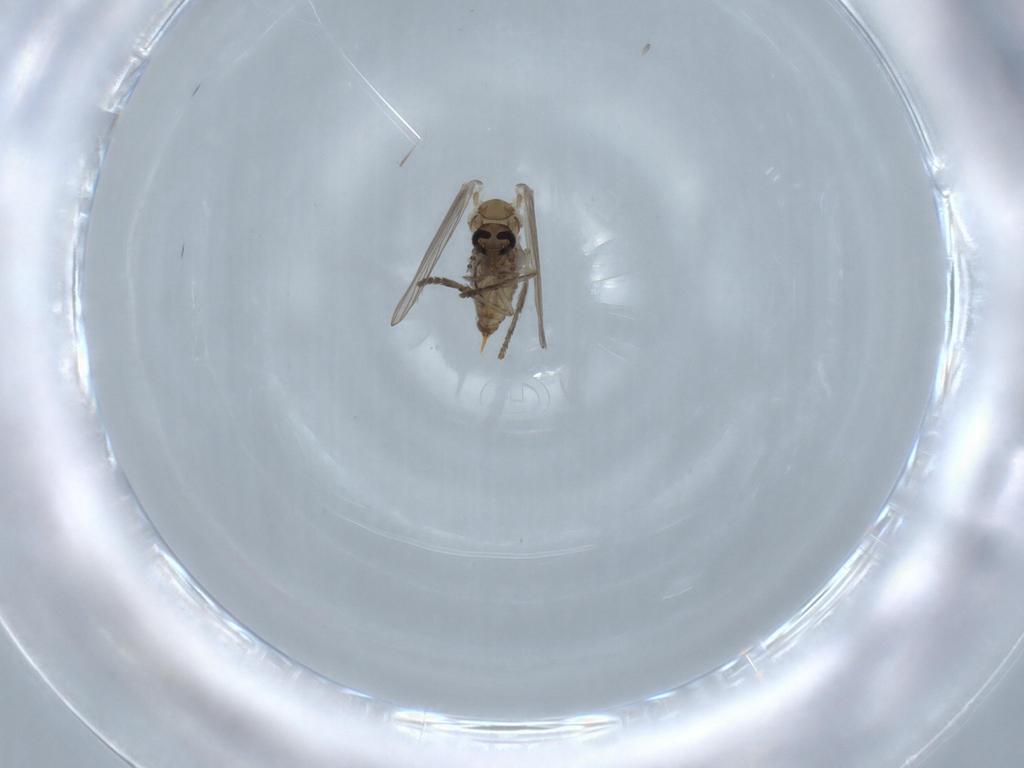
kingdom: Animalia
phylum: Arthropoda
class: Insecta
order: Diptera
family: Psychodidae
